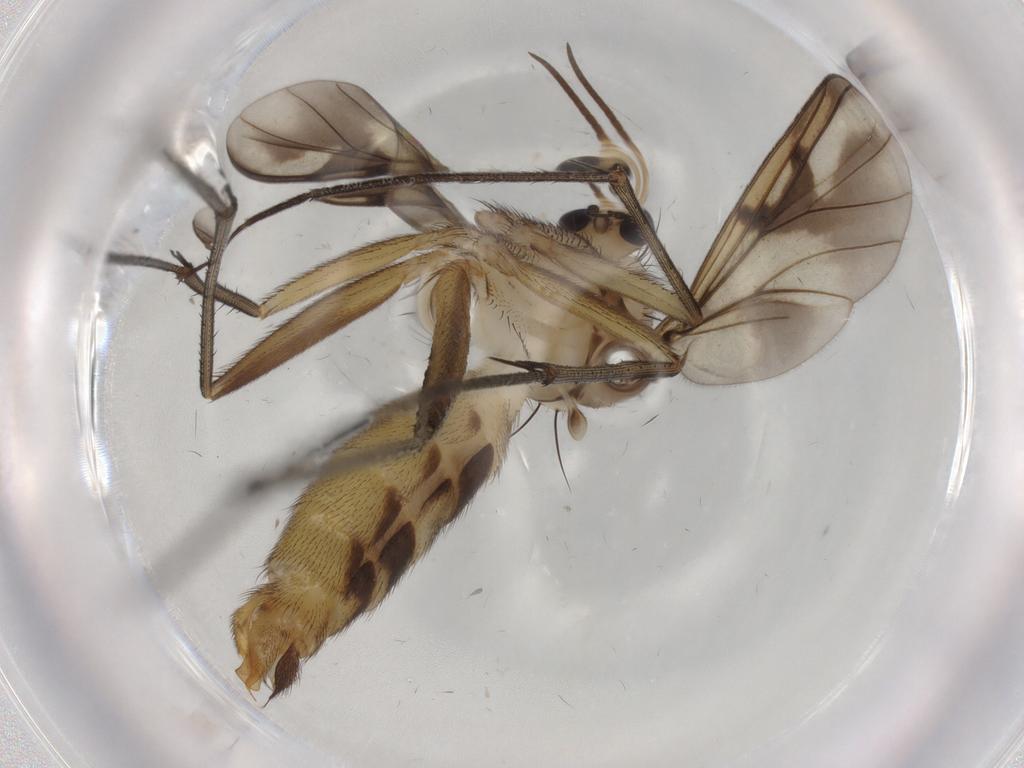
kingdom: Animalia
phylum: Arthropoda
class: Insecta
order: Diptera
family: Mycetophilidae
